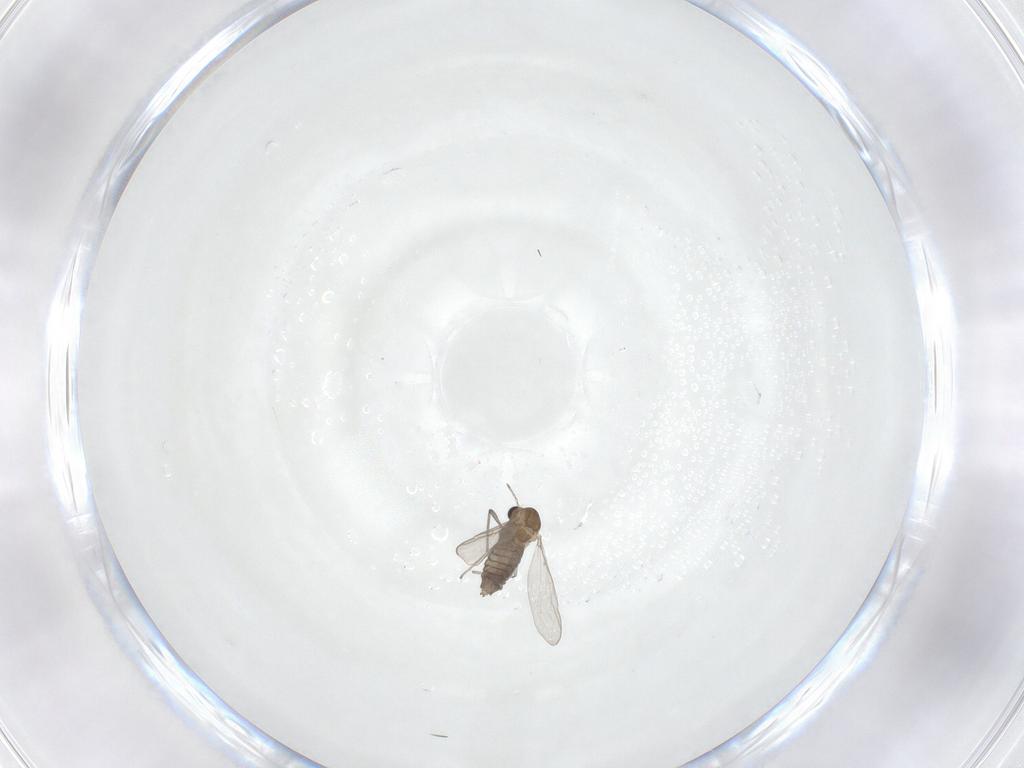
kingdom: Animalia
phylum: Arthropoda
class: Insecta
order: Diptera
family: Chironomidae
